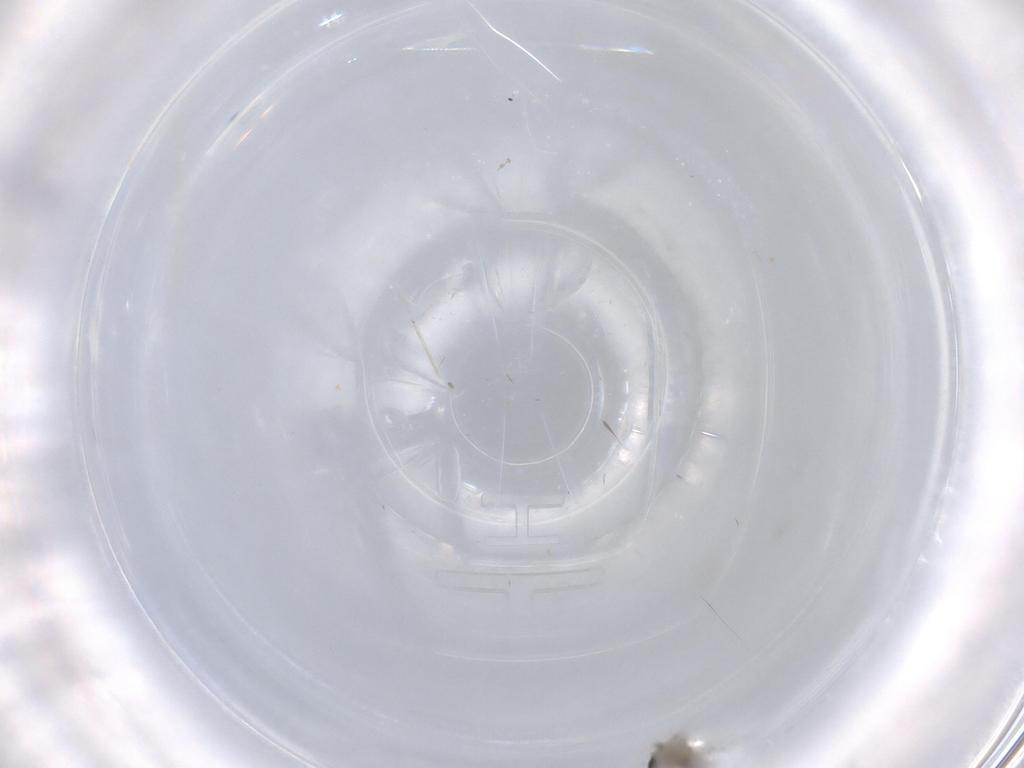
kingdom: Animalia
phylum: Arthropoda
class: Insecta
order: Diptera
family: Cecidomyiidae
